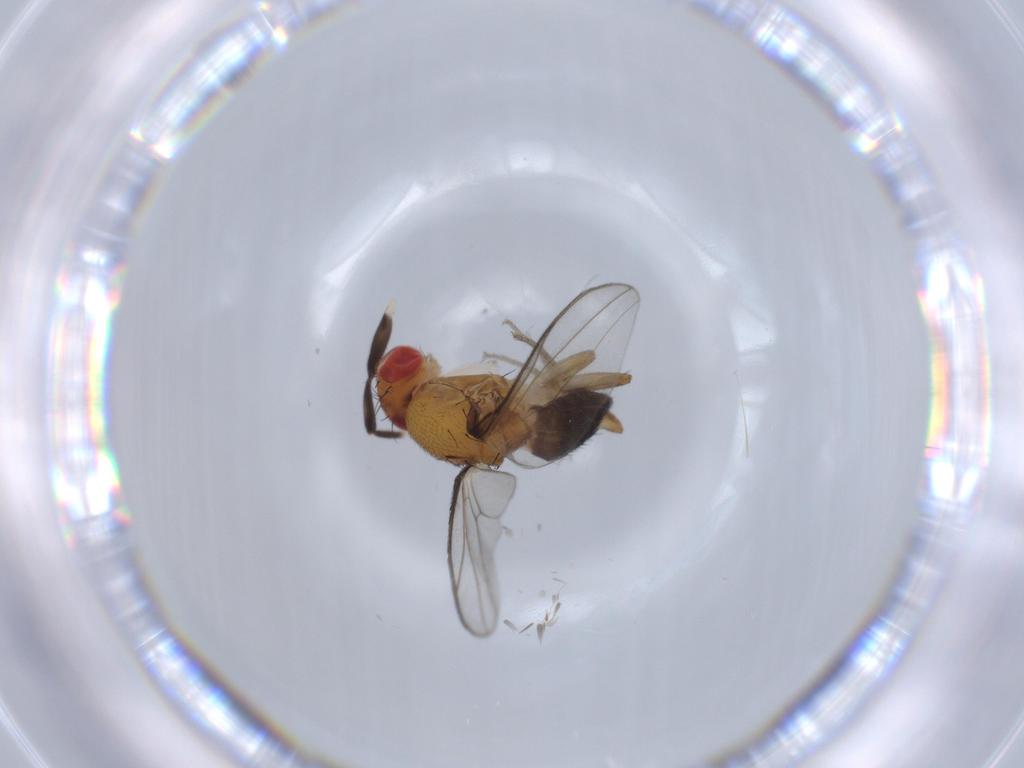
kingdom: Animalia
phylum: Arthropoda
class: Insecta
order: Diptera
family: Drosophilidae
